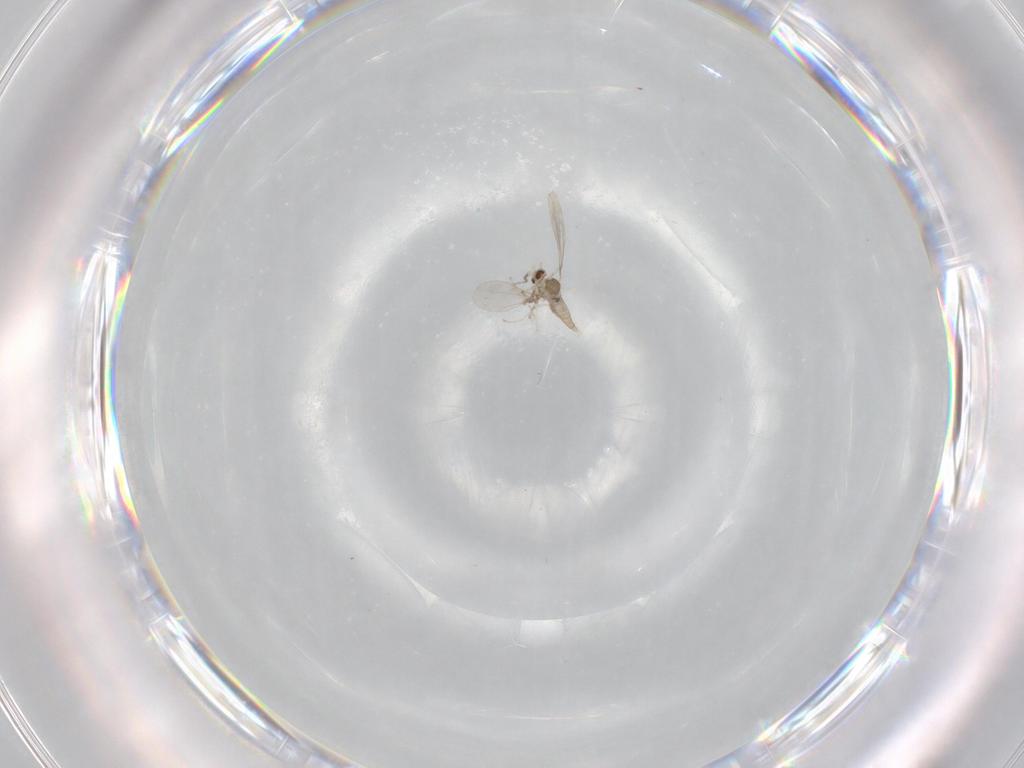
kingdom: Animalia
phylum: Arthropoda
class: Insecta
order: Diptera
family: Cecidomyiidae
